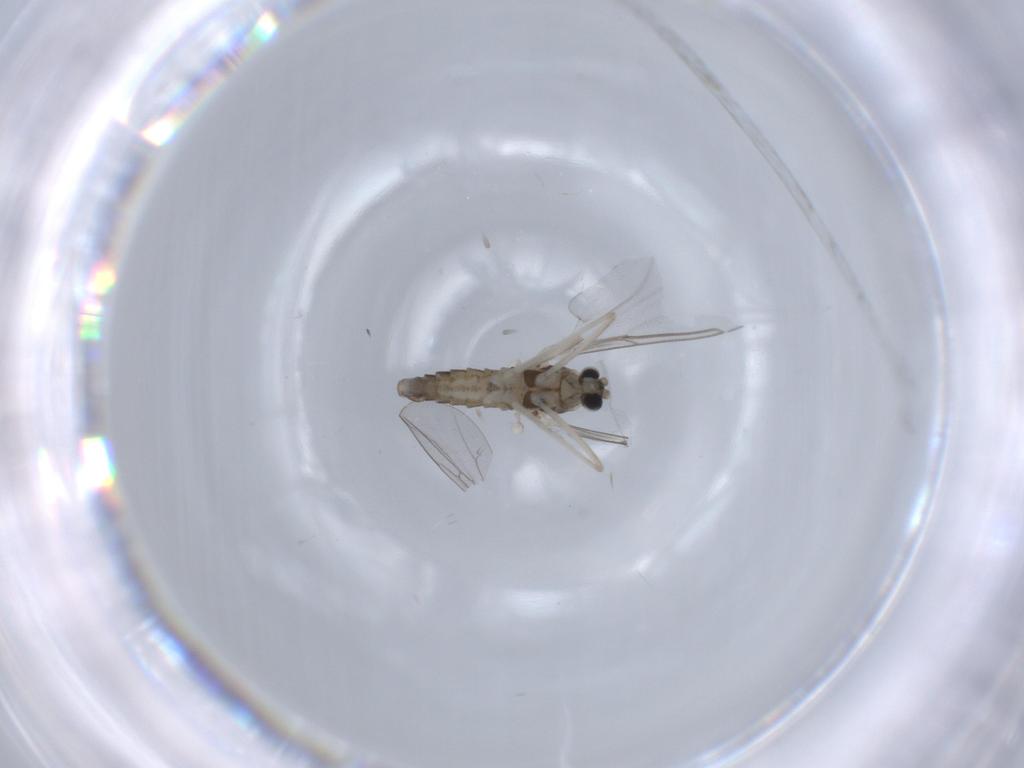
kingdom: Animalia
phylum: Arthropoda
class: Insecta
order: Diptera
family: Cecidomyiidae
